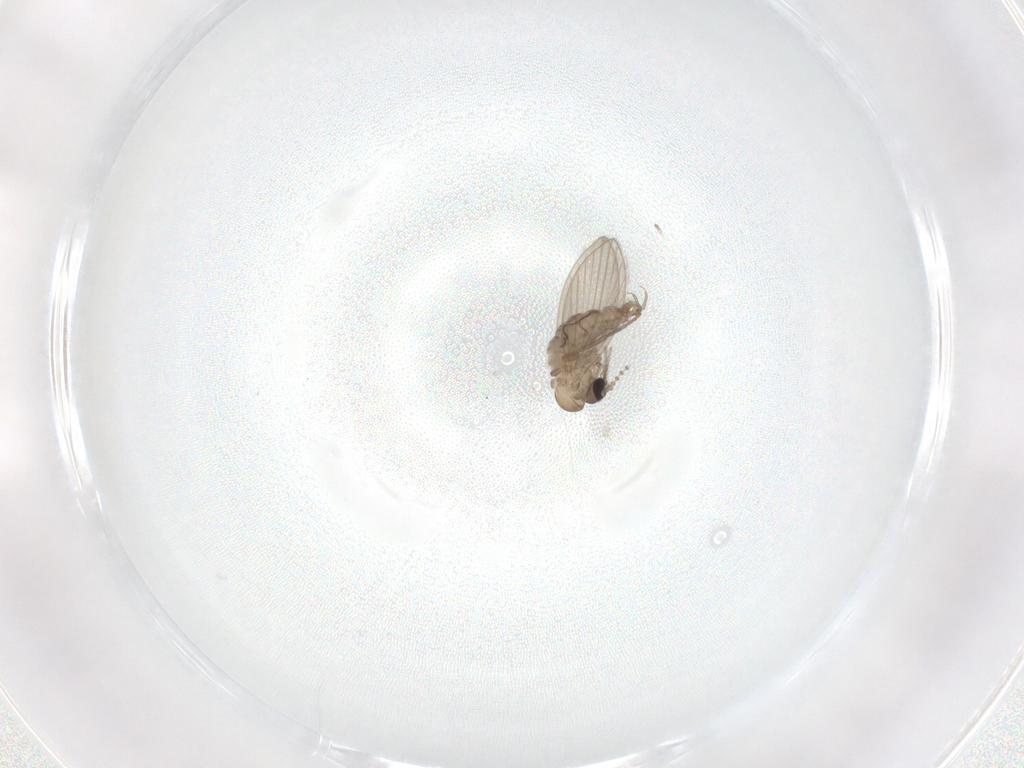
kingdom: Animalia
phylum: Arthropoda
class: Insecta
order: Diptera
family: Psychodidae
